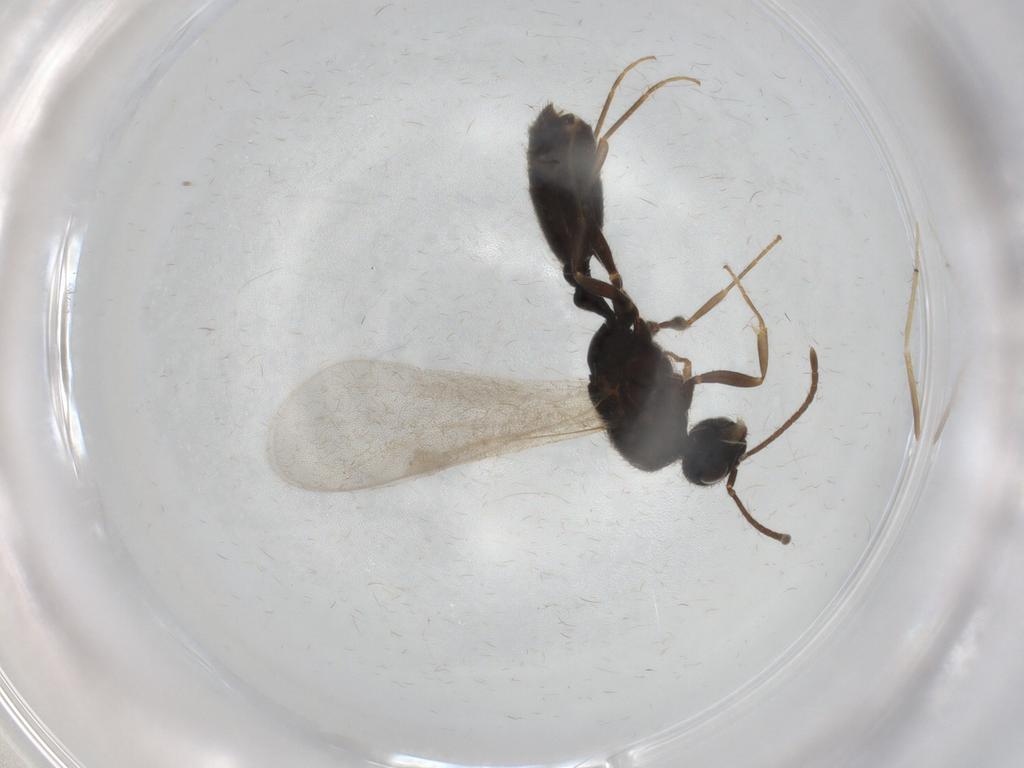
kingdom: Animalia
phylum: Arthropoda
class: Insecta
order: Hymenoptera
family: Formicidae
